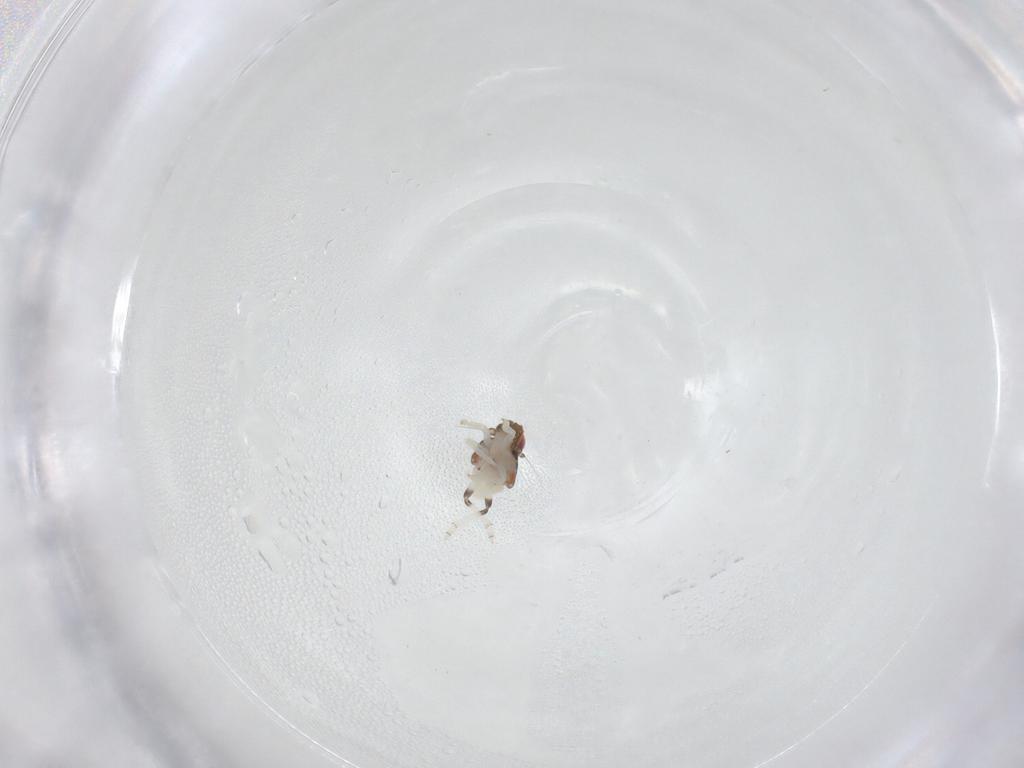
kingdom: Animalia
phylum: Arthropoda
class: Insecta
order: Hemiptera
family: Nogodinidae
